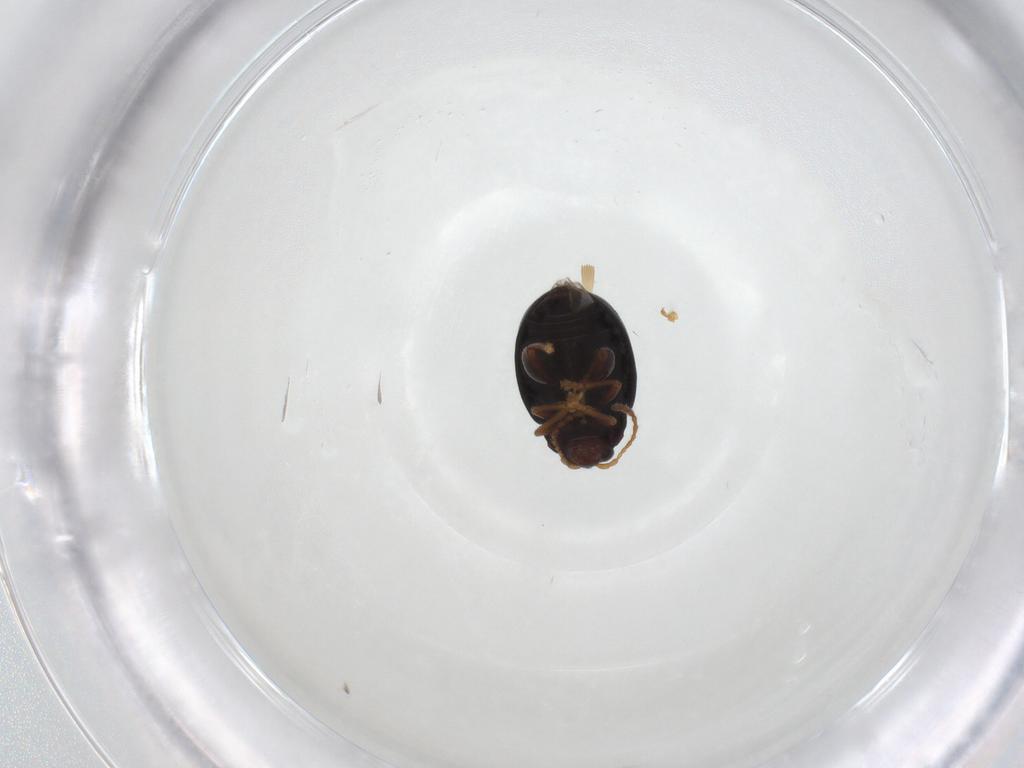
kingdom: Animalia
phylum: Arthropoda
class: Insecta
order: Coleoptera
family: Chrysomelidae
